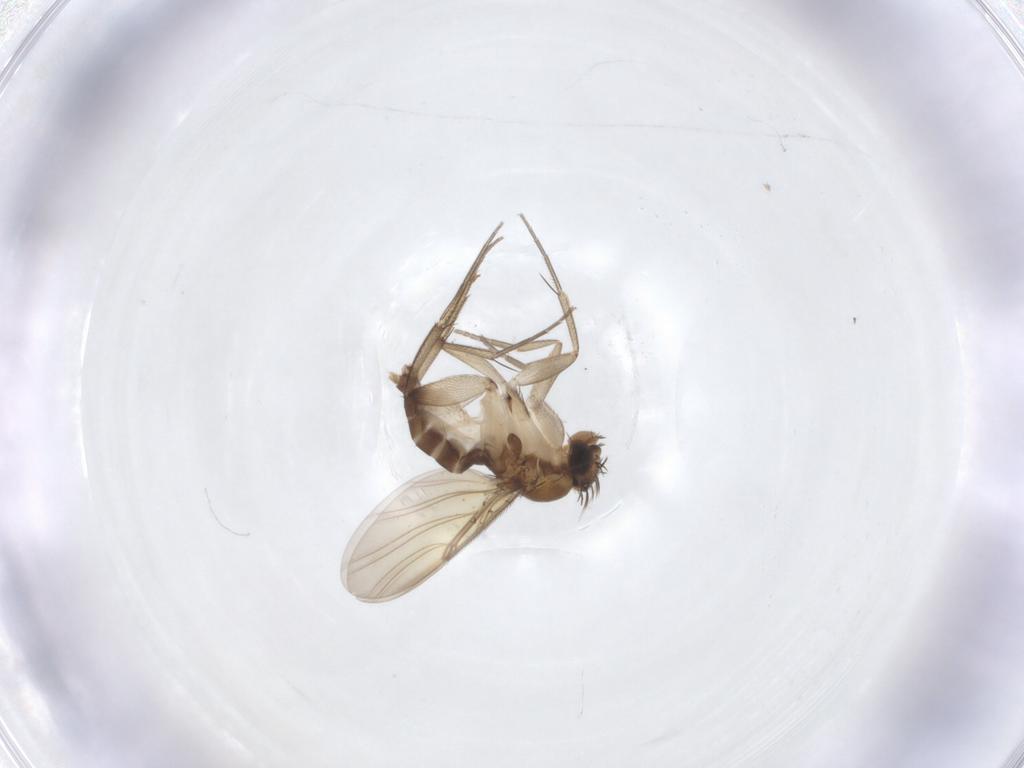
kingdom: Animalia
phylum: Arthropoda
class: Insecta
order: Diptera
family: Phoridae
